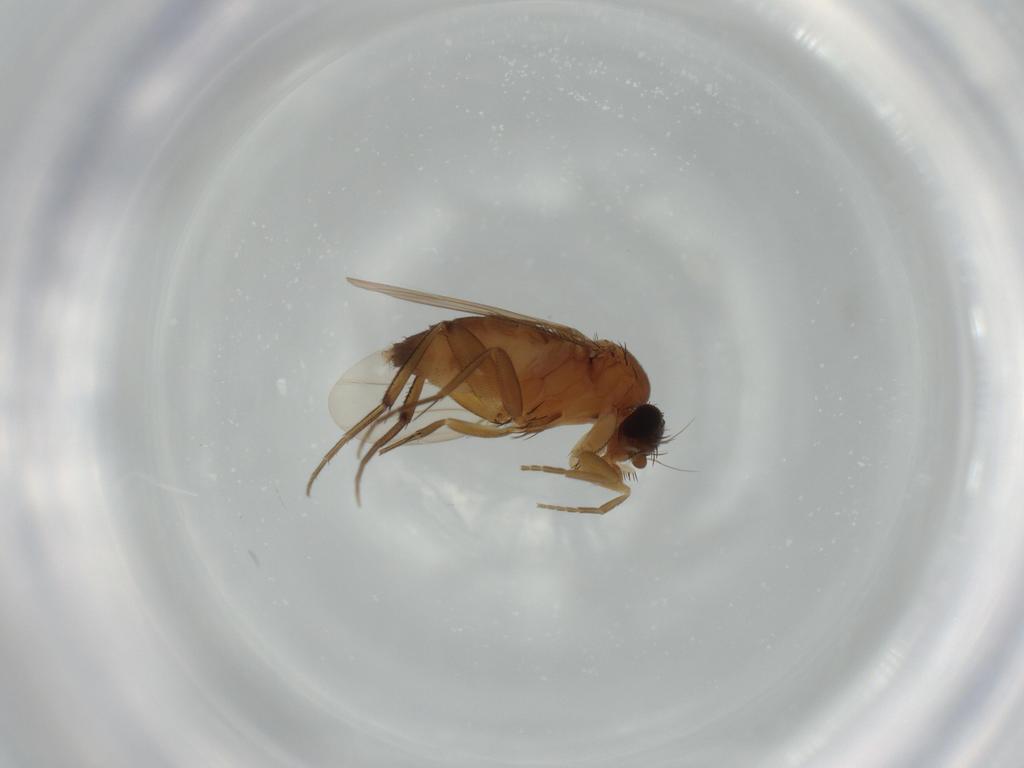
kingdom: Animalia
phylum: Arthropoda
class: Insecta
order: Diptera
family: Phoridae
